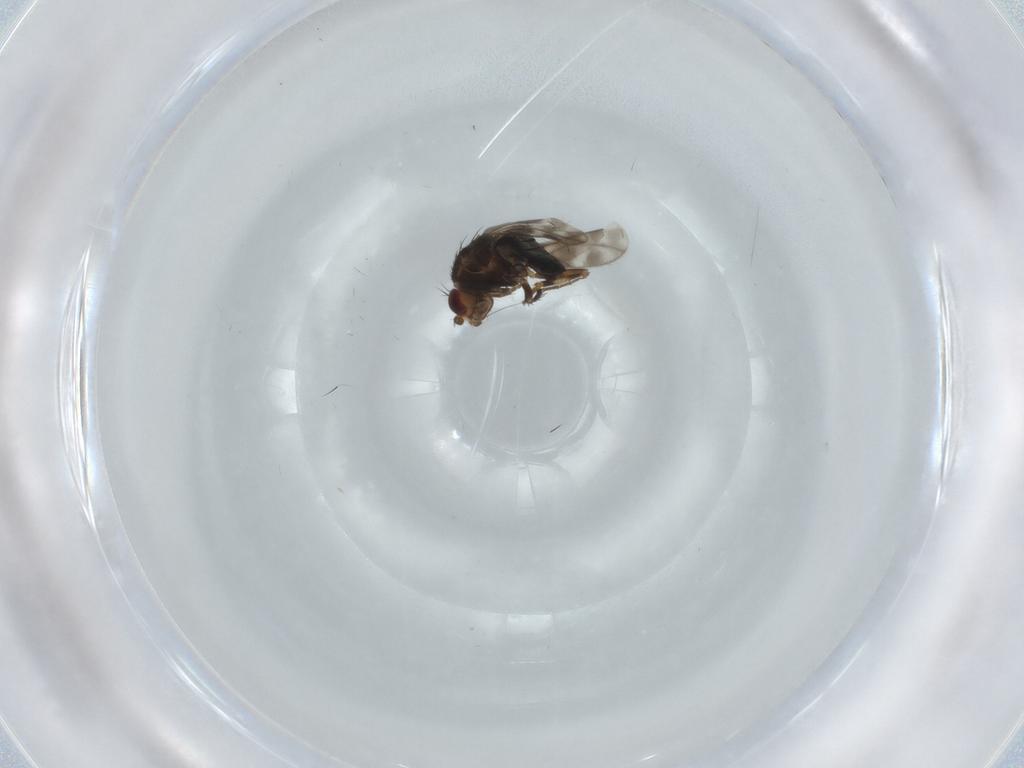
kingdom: Animalia
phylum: Arthropoda
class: Insecta
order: Diptera
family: Sphaeroceridae
